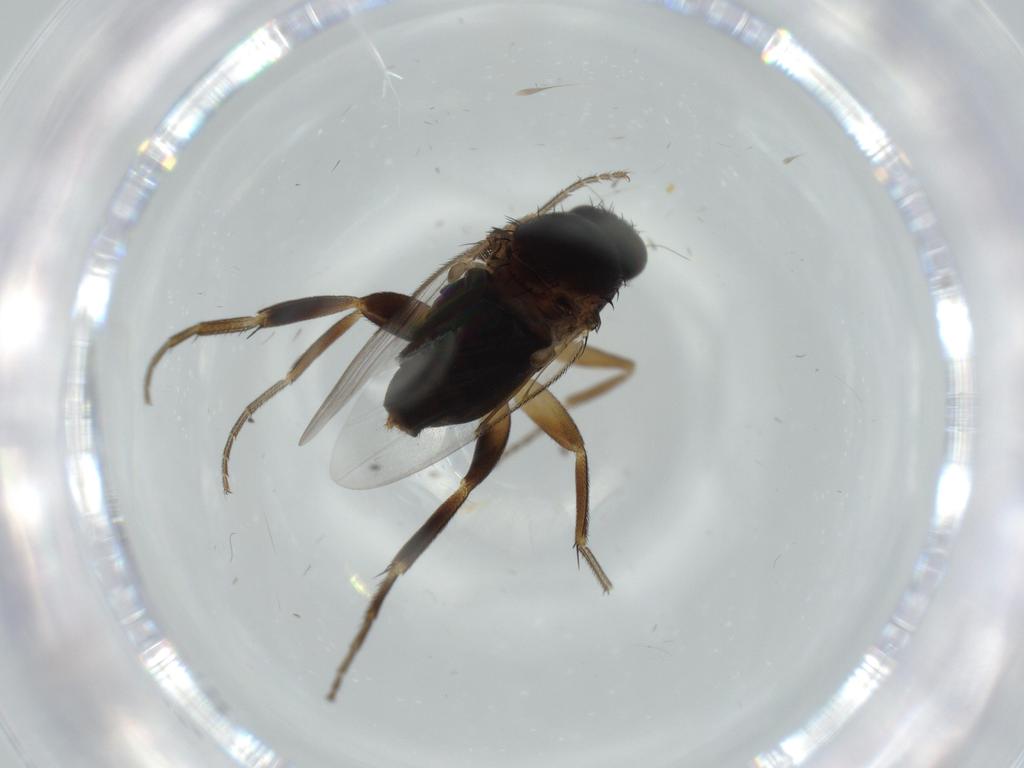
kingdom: Animalia
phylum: Arthropoda
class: Insecta
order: Diptera
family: Phoridae
